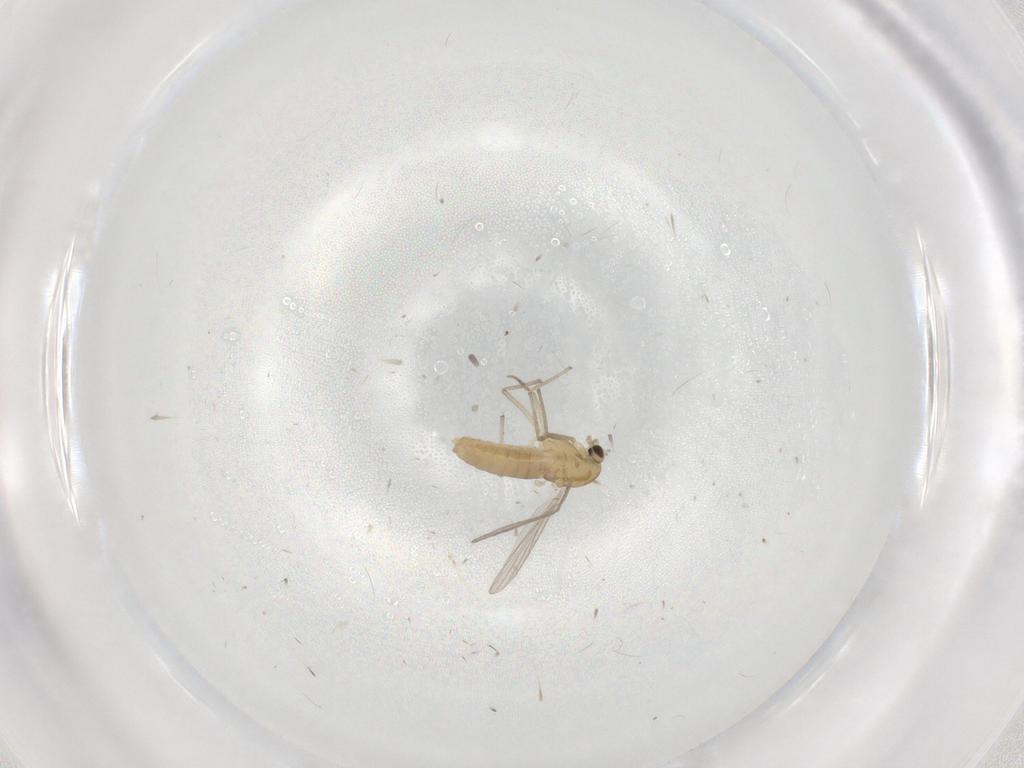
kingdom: Animalia
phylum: Arthropoda
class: Insecta
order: Diptera
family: Chironomidae
